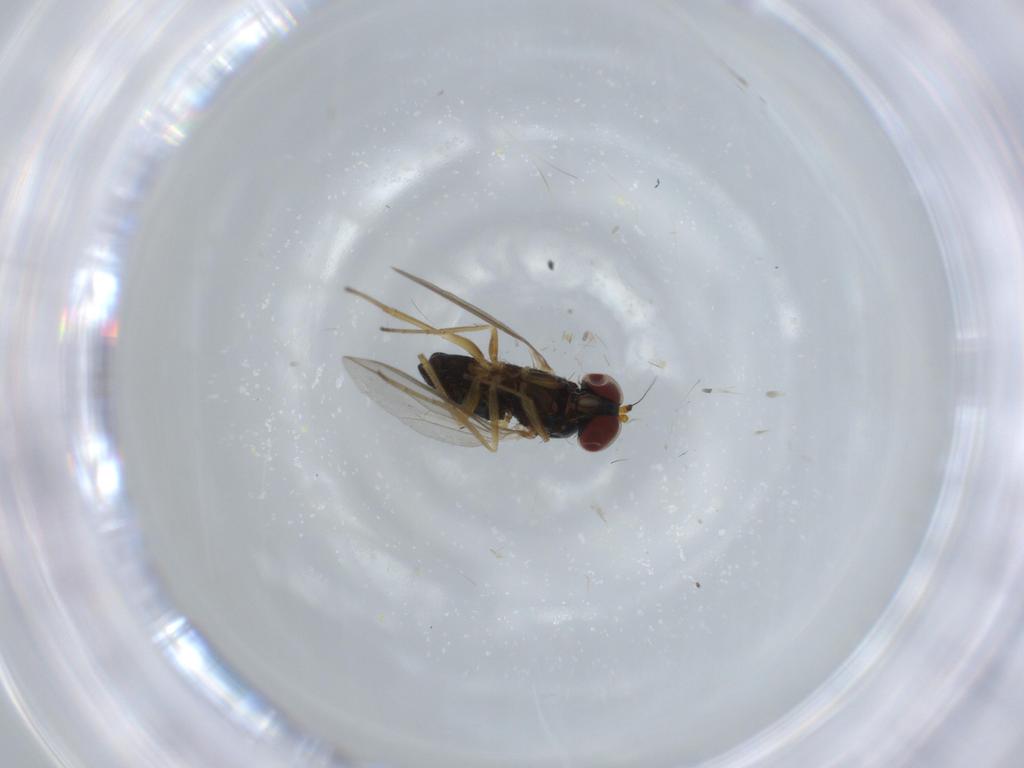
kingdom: Animalia
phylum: Arthropoda
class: Insecta
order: Diptera
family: Dolichopodidae
